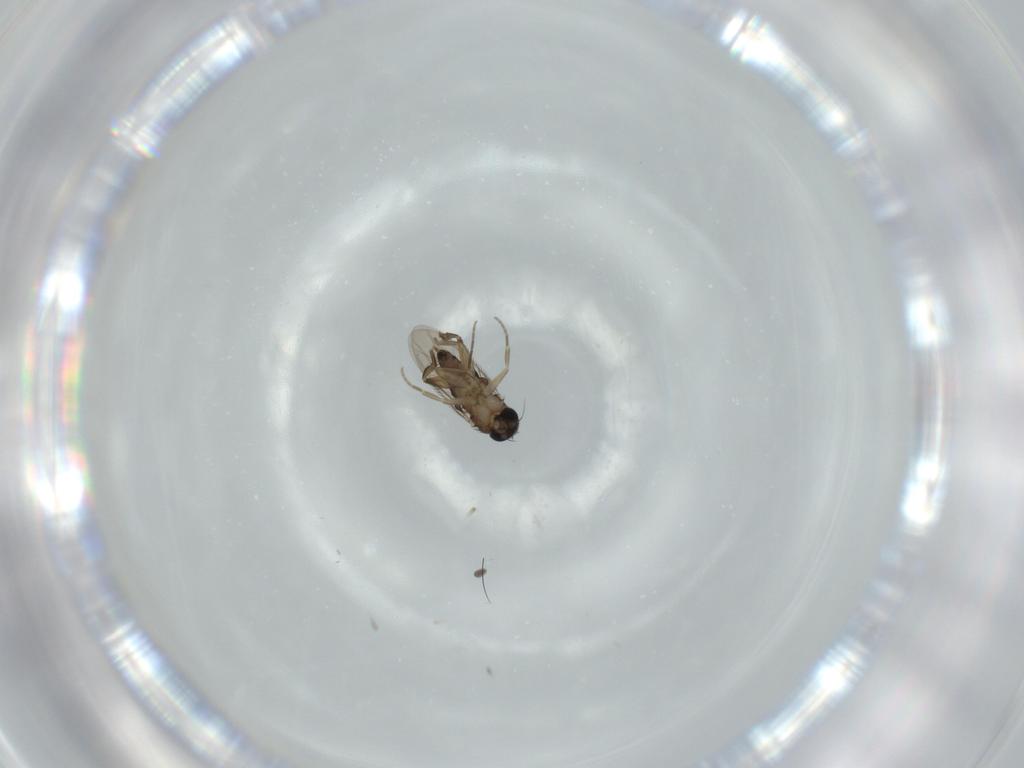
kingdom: Animalia
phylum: Arthropoda
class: Insecta
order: Diptera
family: Phoridae
